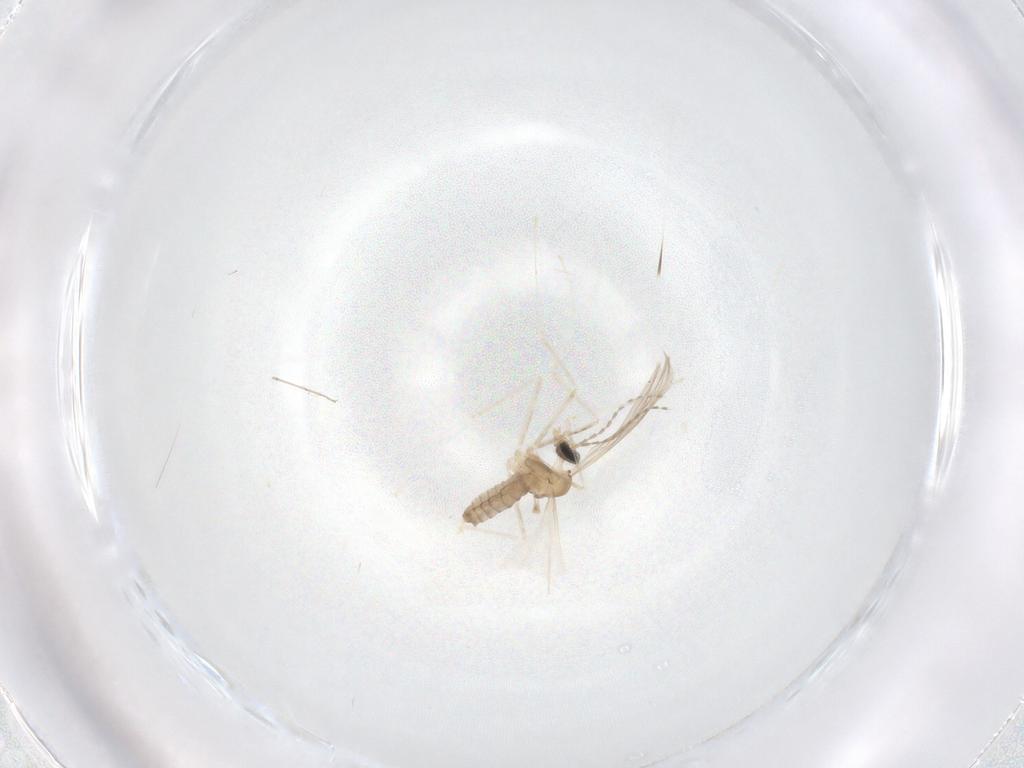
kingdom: Animalia
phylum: Arthropoda
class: Insecta
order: Diptera
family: Cecidomyiidae
